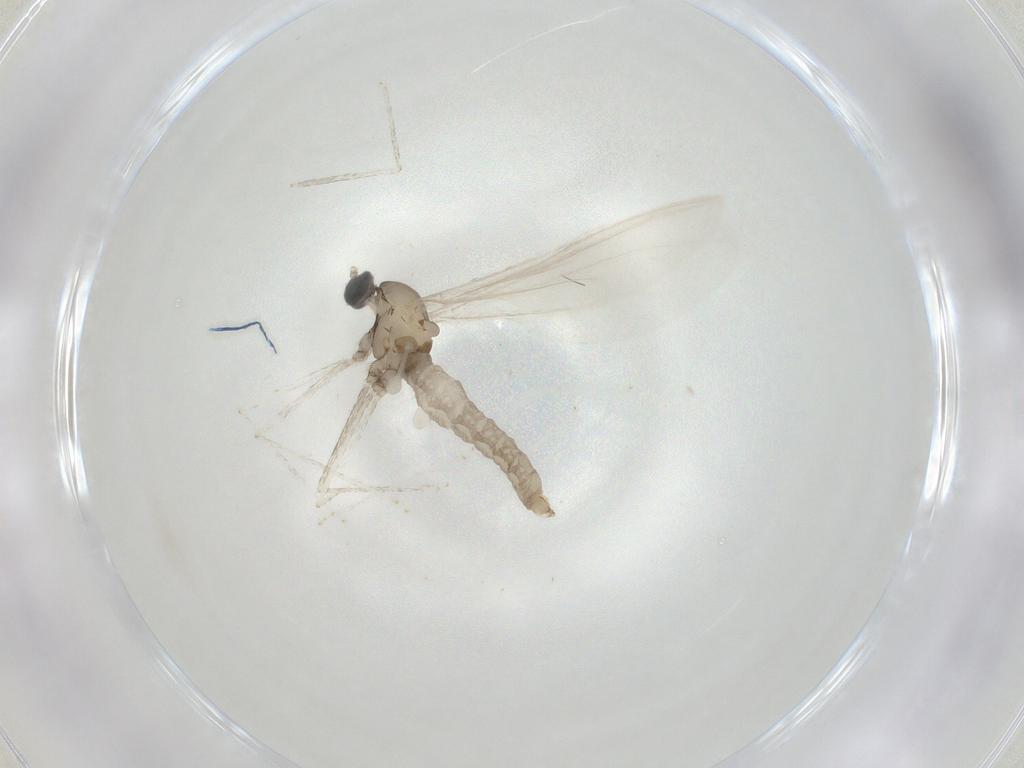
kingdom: Animalia
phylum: Arthropoda
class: Insecta
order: Diptera
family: Cecidomyiidae
